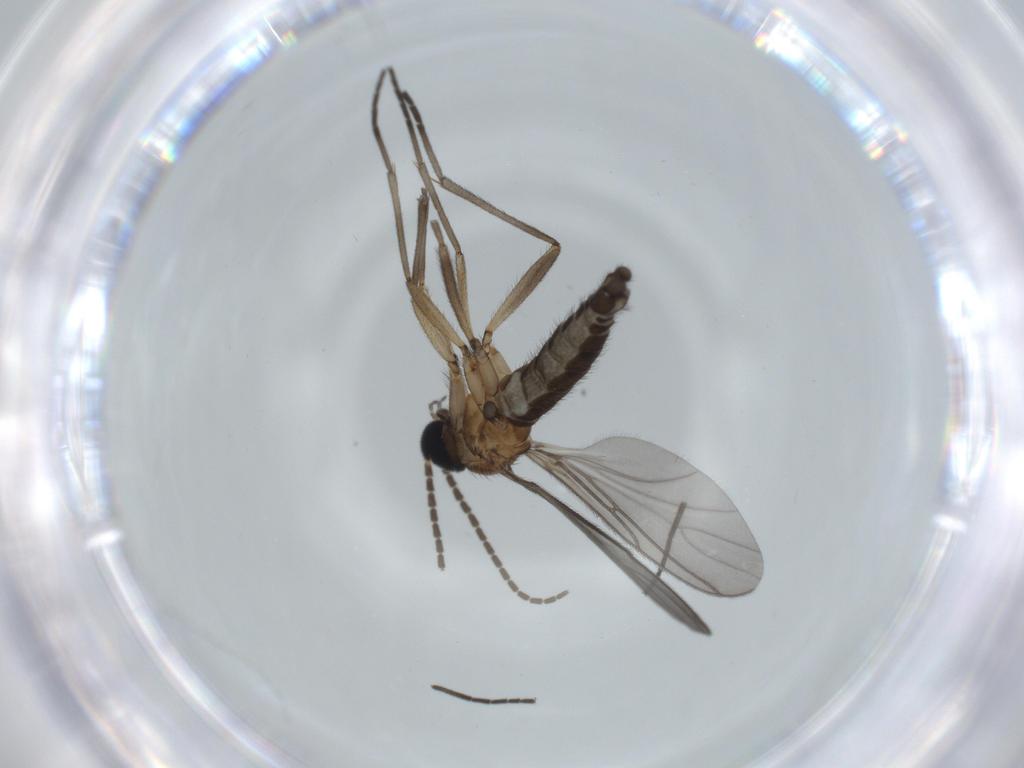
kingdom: Animalia
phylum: Arthropoda
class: Insecta
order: Diptera
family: Sciaridae
